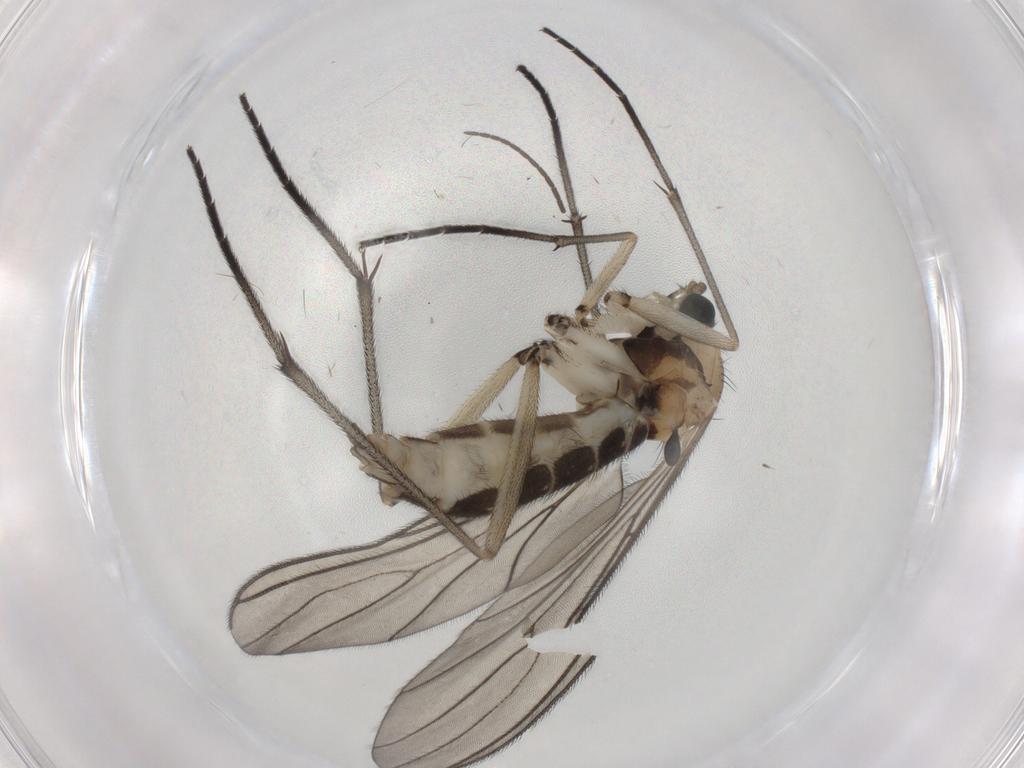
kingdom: Animalia
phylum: Arthropoda
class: Insecta
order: Diptera
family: Sciaridae
